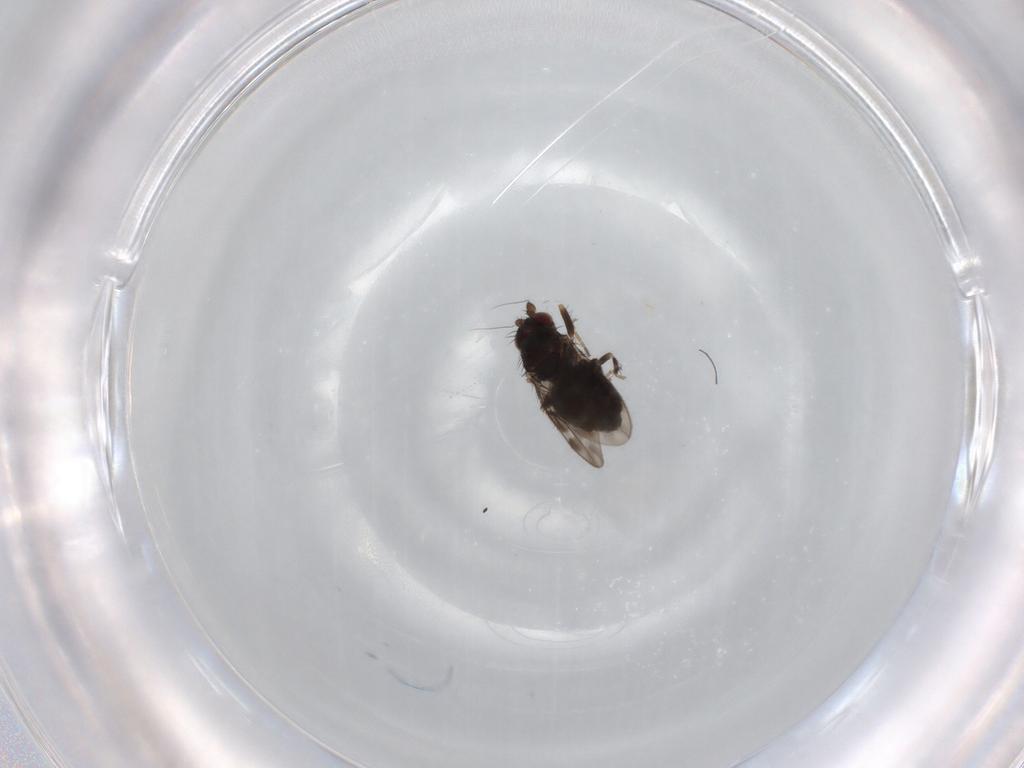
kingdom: Animalia
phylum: Arthropoda
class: Insecta
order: Diptera
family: Sphaeroceridae
